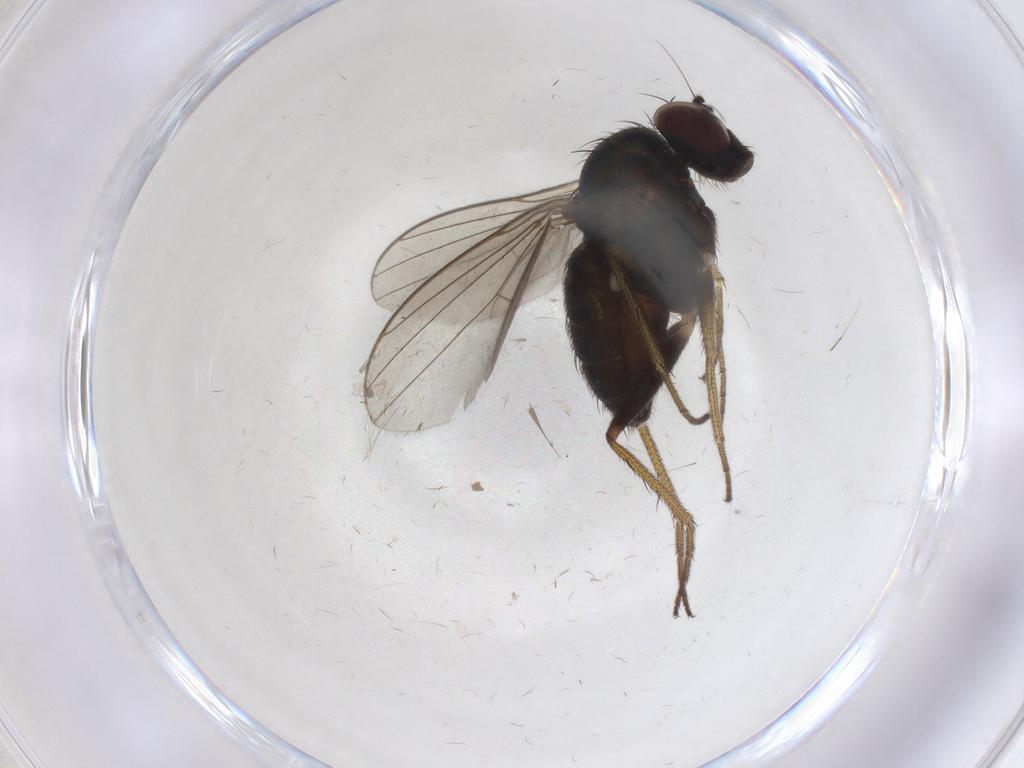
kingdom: Animalia
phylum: Arthropoda
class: Insecta
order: Diptera
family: Dolichopodidae
